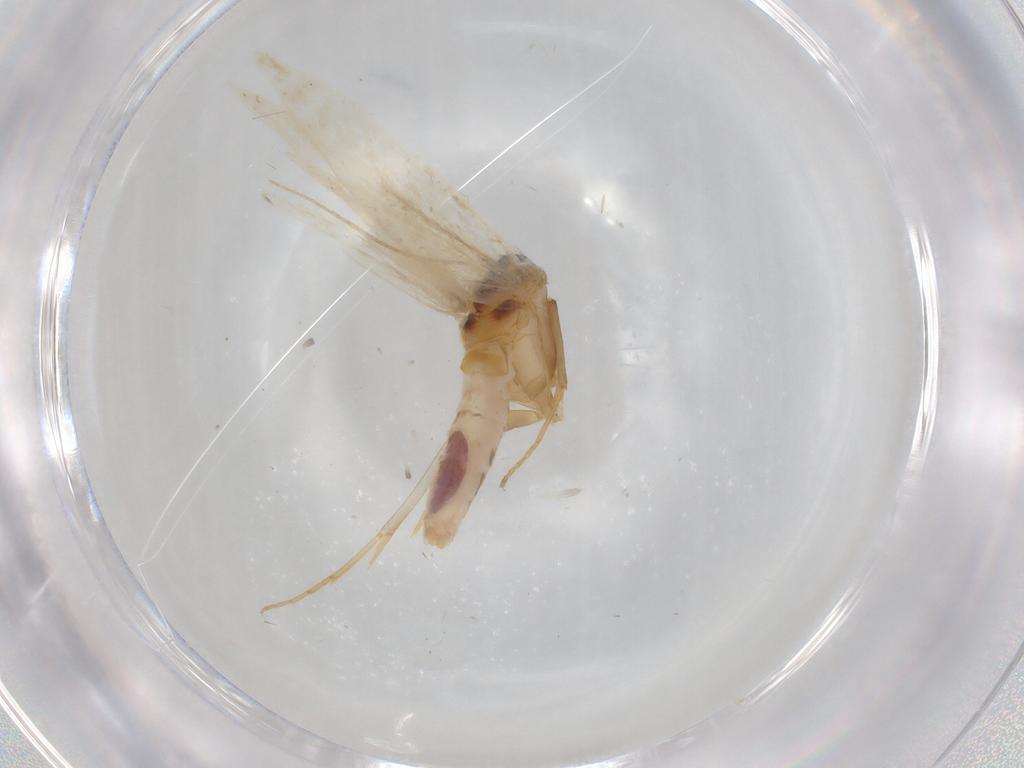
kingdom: Animalia
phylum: Arthropoda
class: Insecta
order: Lepidoptera
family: Gelechiidae
